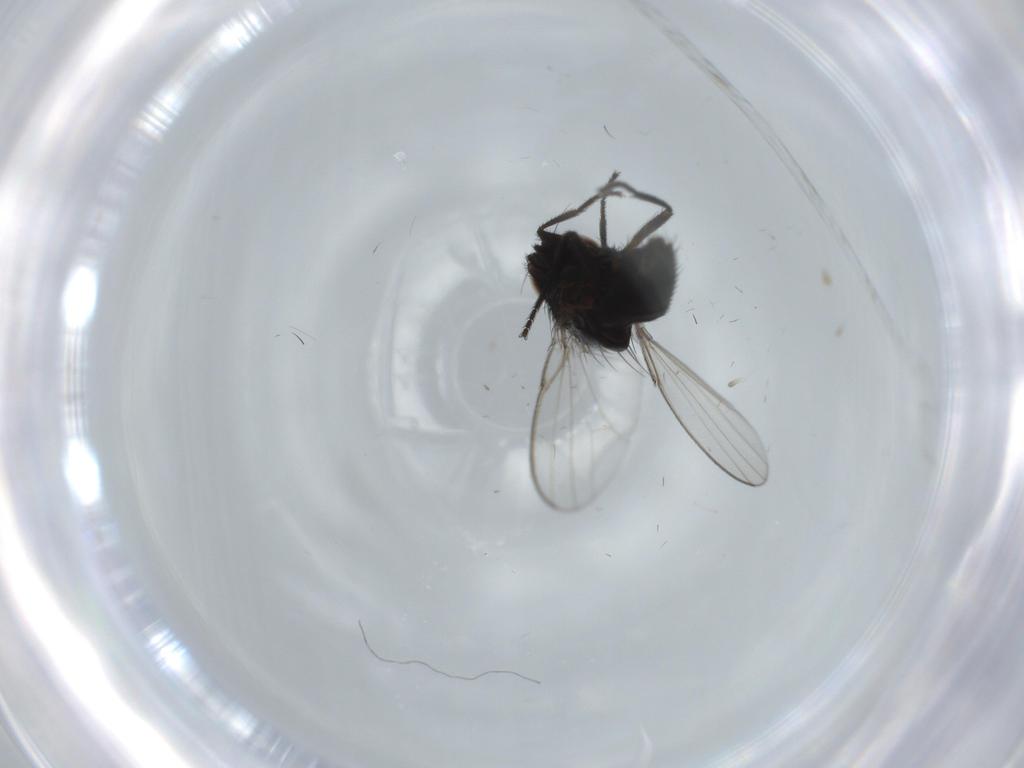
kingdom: Animalia
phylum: Arthropoda
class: Insecta
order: Diptera
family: Milichiidae
